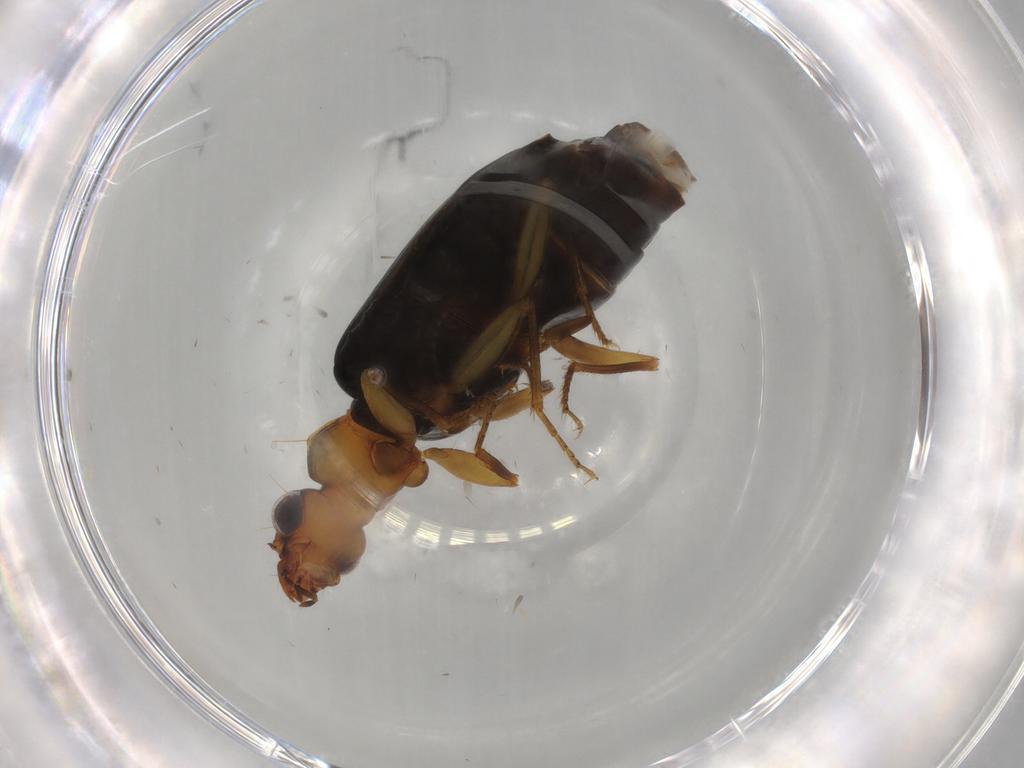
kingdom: Animalia
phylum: Arthropoda
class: Insecta
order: Coleoptera
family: Carabidae
